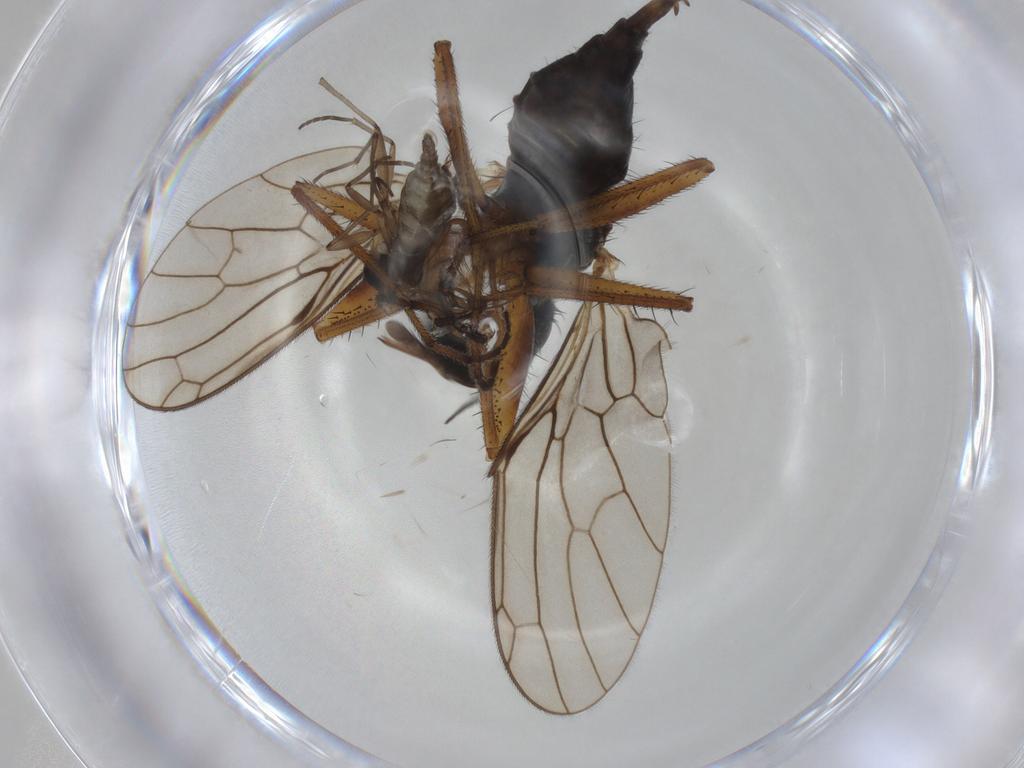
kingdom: Animalia
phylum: Arthropoda
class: Insecta
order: Diptera
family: Empididae
